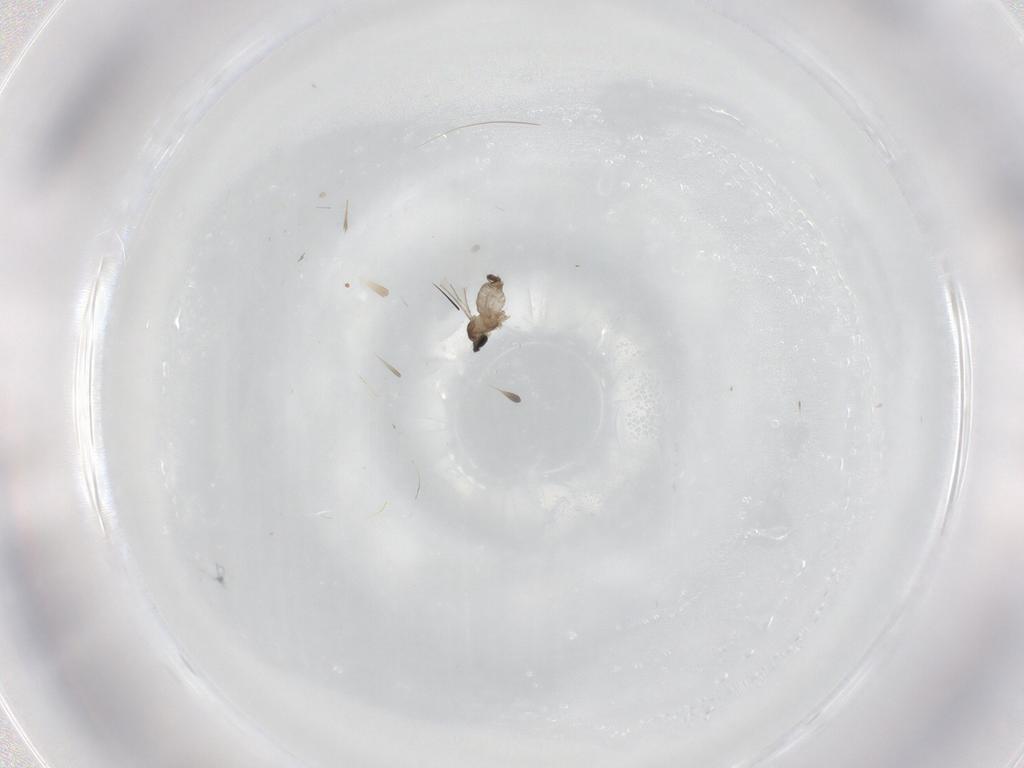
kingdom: Animalia
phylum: Arthropoda
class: Insecta
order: Diptera
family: Cecidomyiidae
